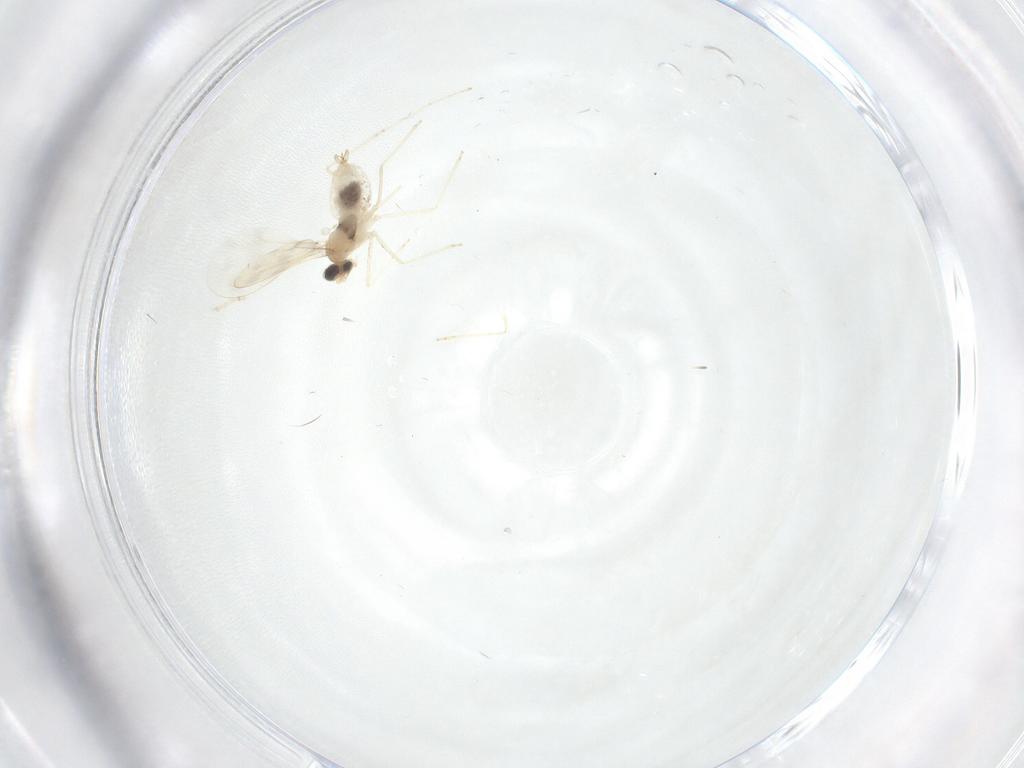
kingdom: Animalia
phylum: Arthropoda
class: Insecta
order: Diptera
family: Cecidomyiidae
